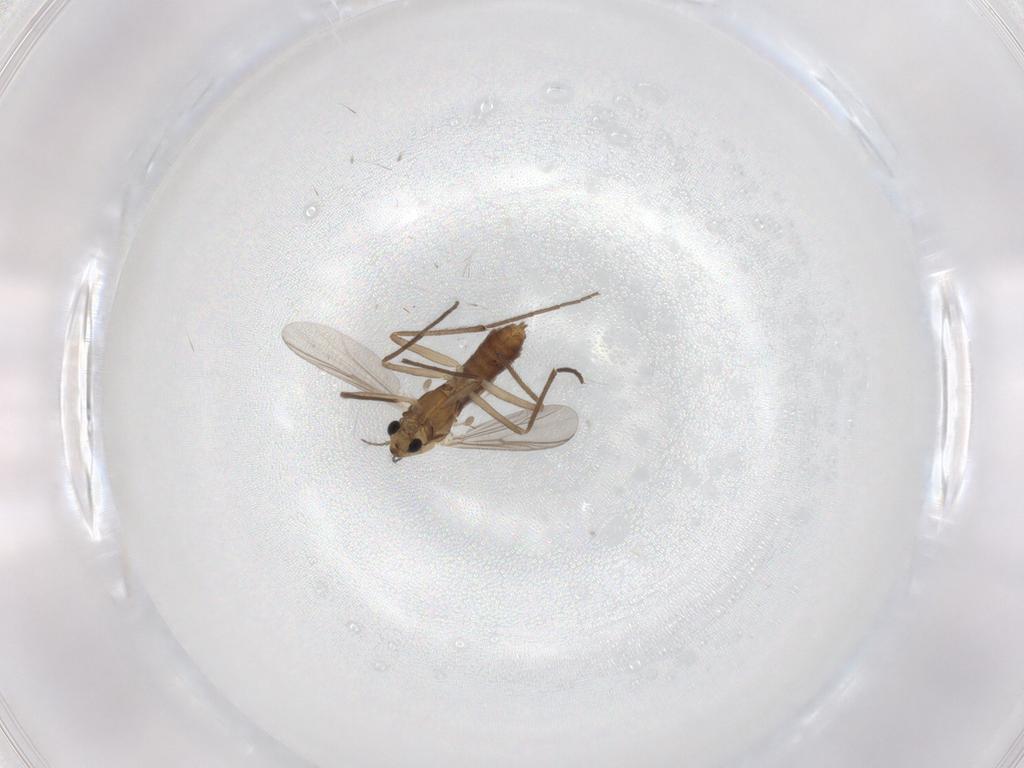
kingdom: Animalia
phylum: Arthropoda
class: Insecta
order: Diptera
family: Chironomidae
